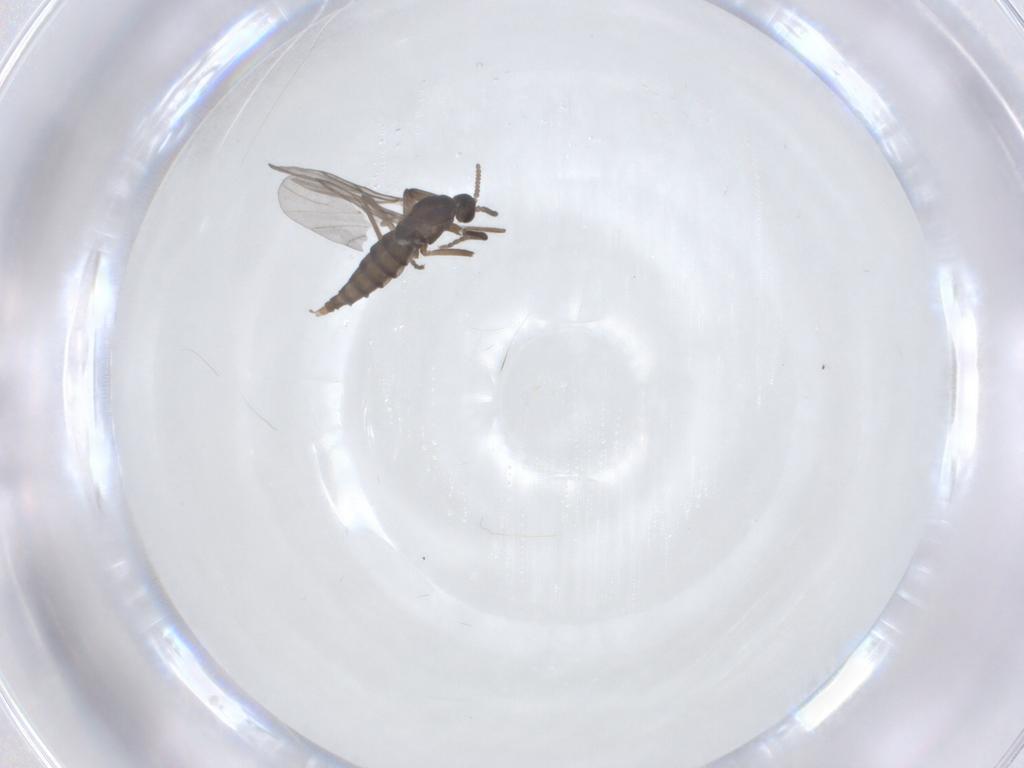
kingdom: Animalia
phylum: Arthropoda
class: Insecta
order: Diptera
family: Cecidomyiidae
